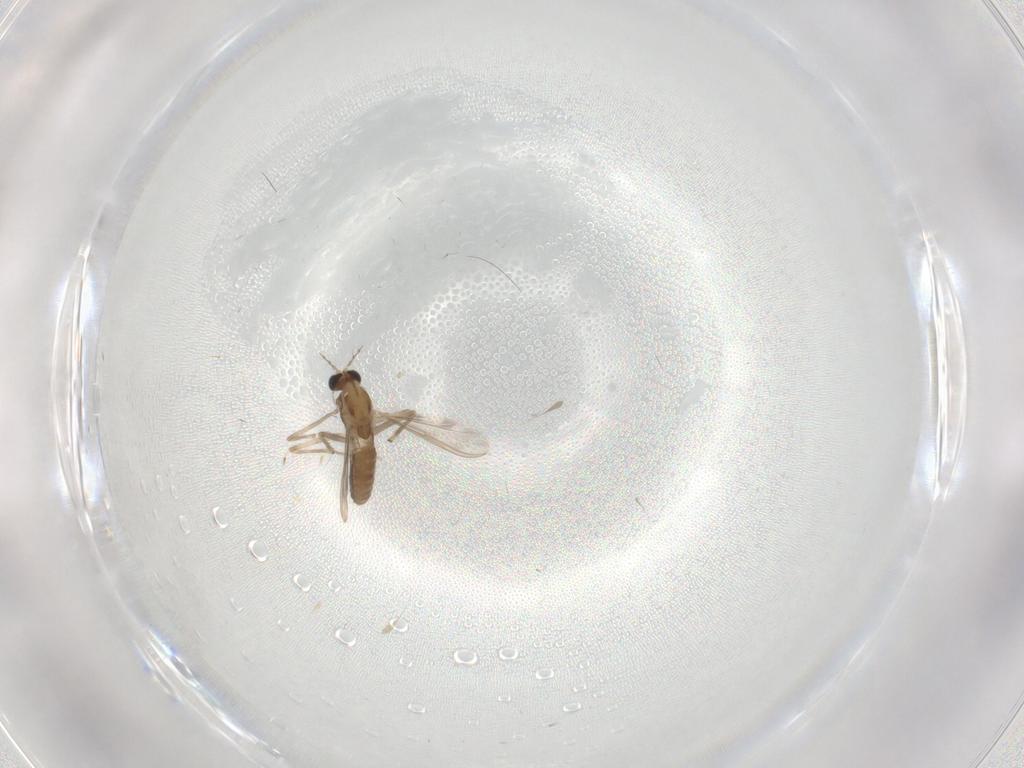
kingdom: Animalia
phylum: Arthropoda
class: Insecta
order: Diptera
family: Chironomidae
